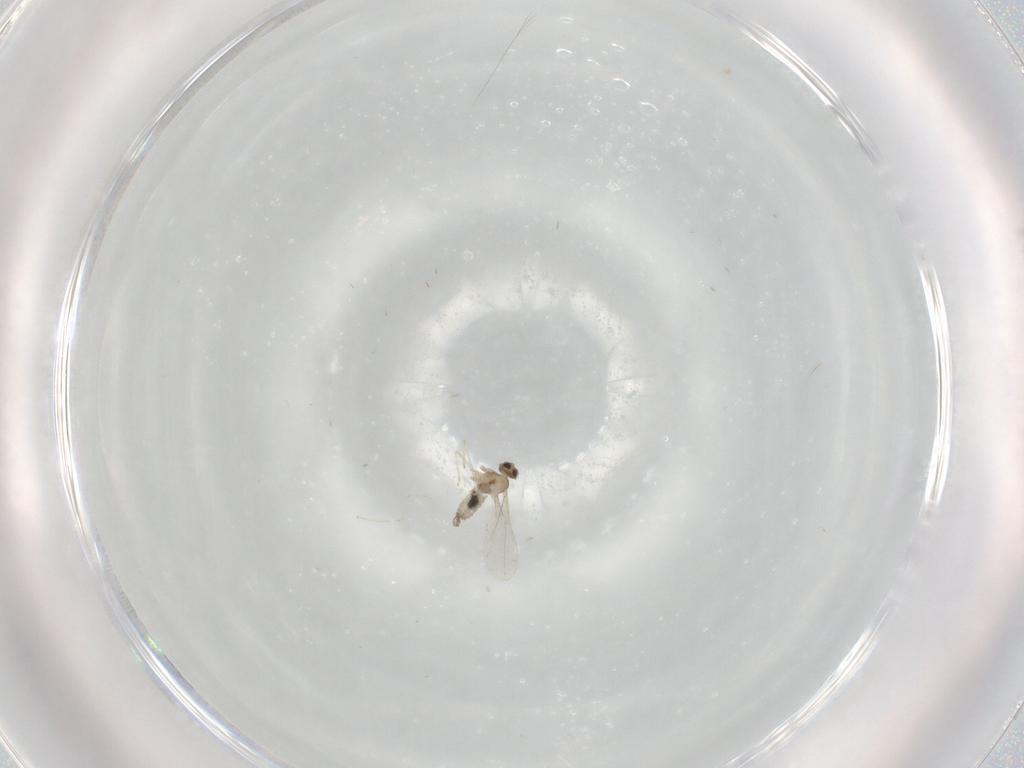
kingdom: Animalia
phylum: Arthropoda
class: Insecta
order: Diptera
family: Cecidomyiidae
